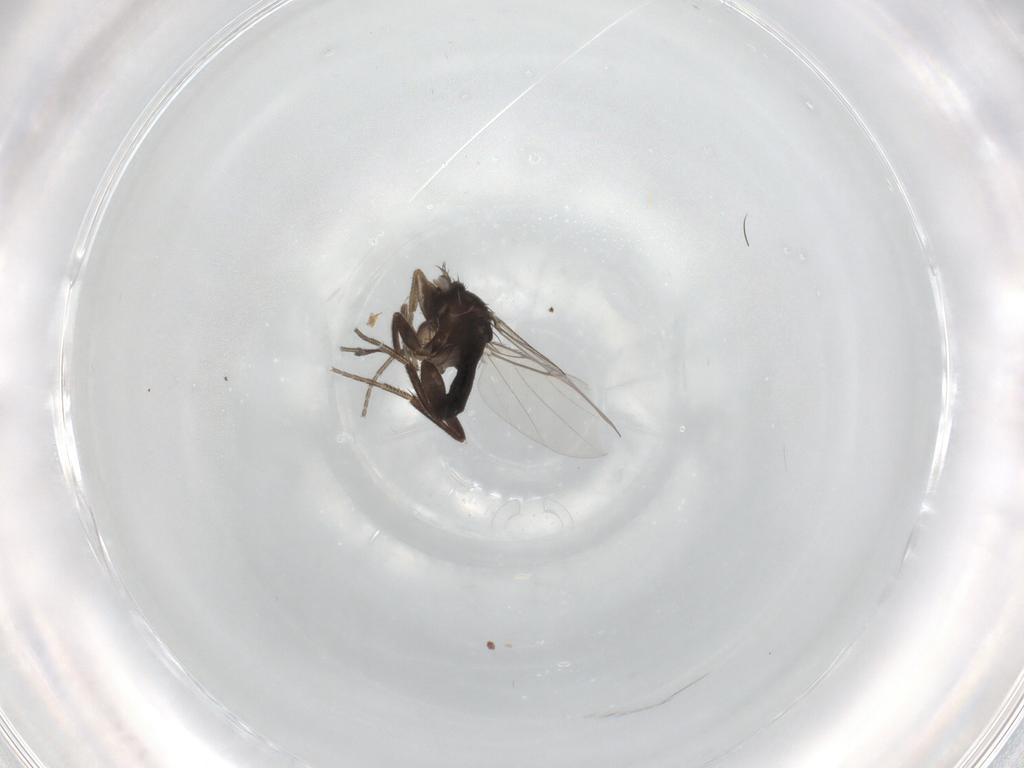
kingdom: Animalia
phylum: Arthropoda
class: Insecta
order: Diptera
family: Phoridae
